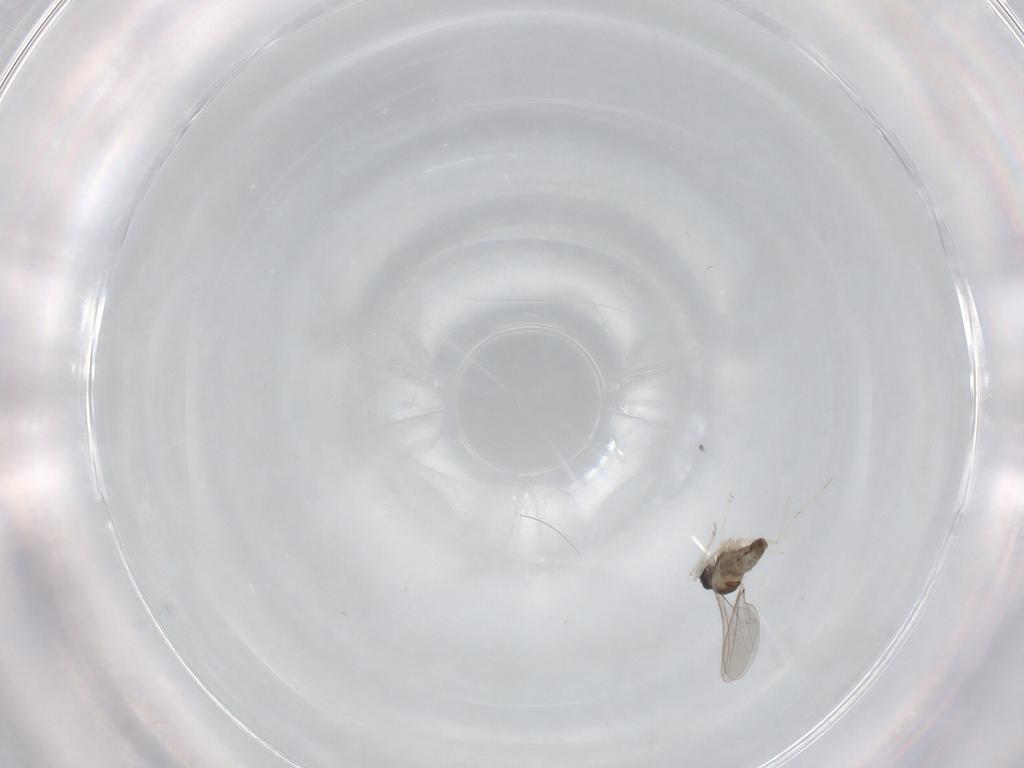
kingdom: Animalia
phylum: Arthropoda
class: Insecta
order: Diptera
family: Cecidomyiidae
